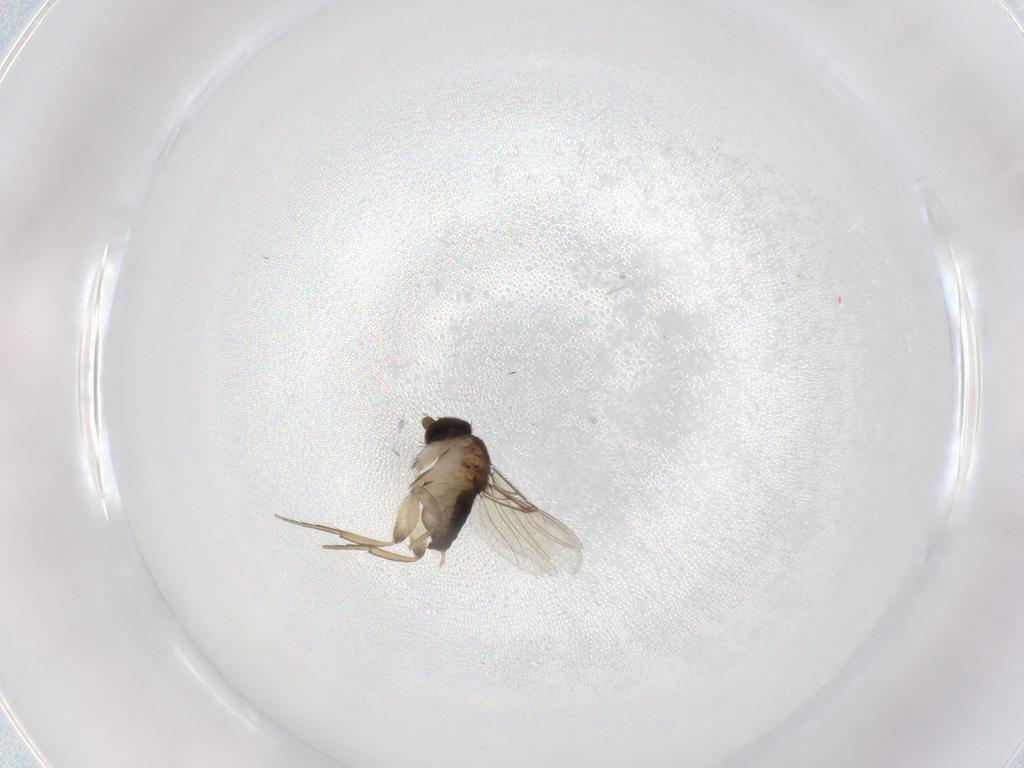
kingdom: Animalia
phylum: Arthropoda
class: Insecta
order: Diptera
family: Phoridae
